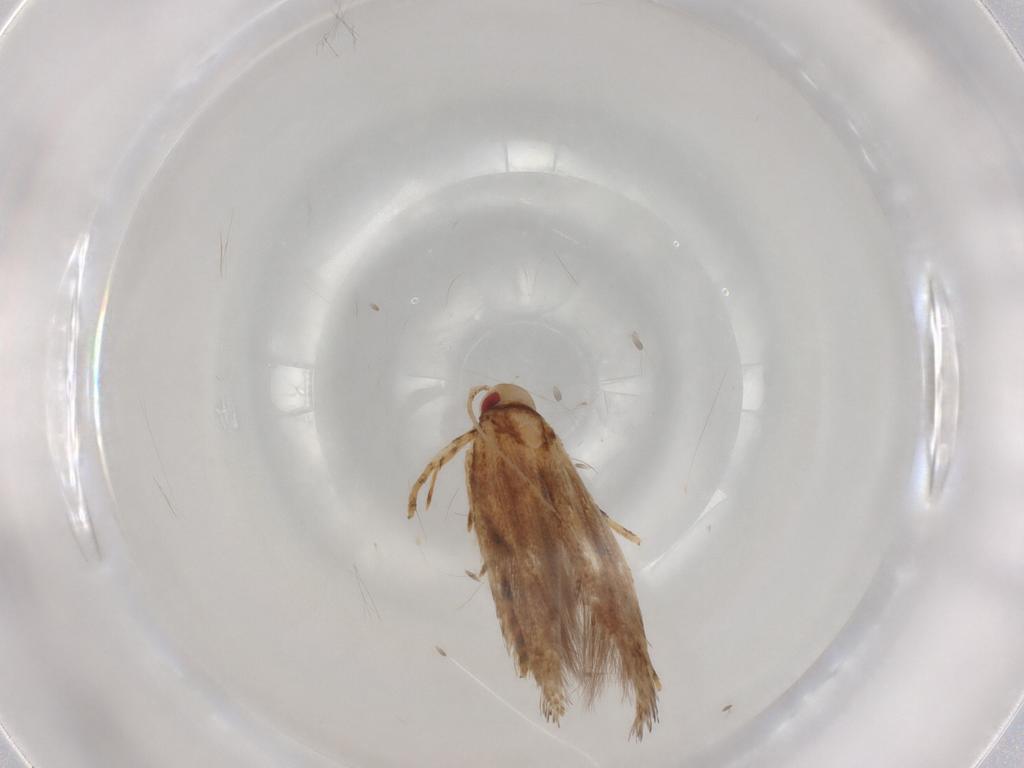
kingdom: Animalia
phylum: Arthropoda
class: Insecta
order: Lepidoptera
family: Cosmopterigidae
